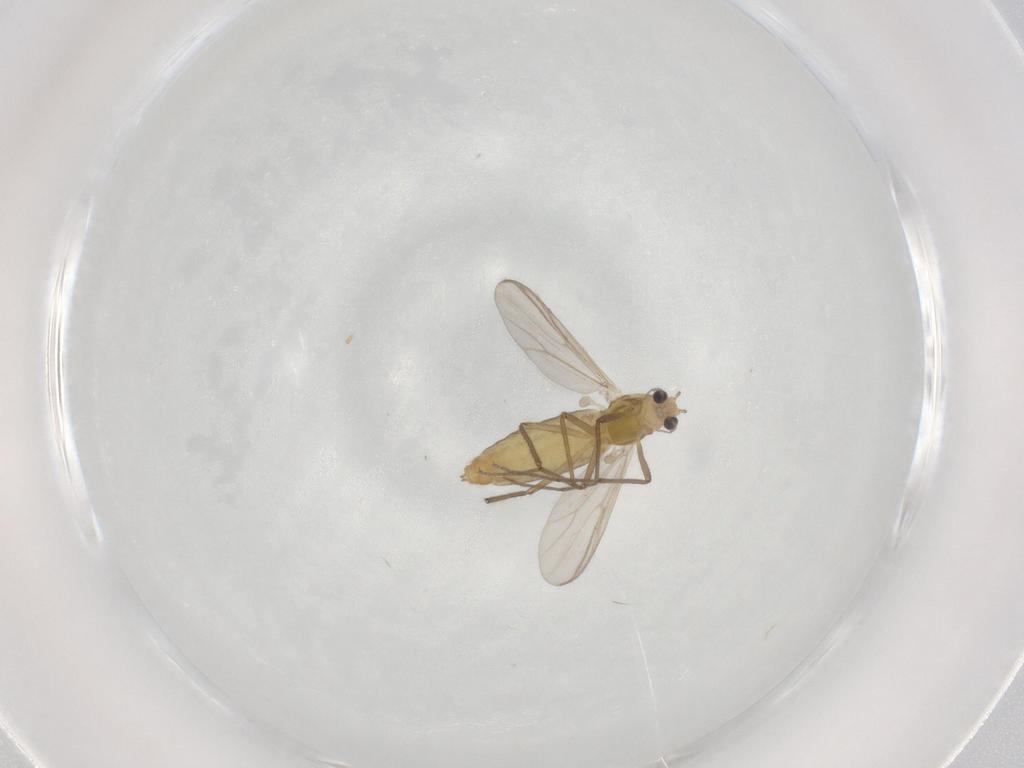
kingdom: Animalia
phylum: Arthropoda
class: Insecta
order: Diptera
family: Chironomidae
